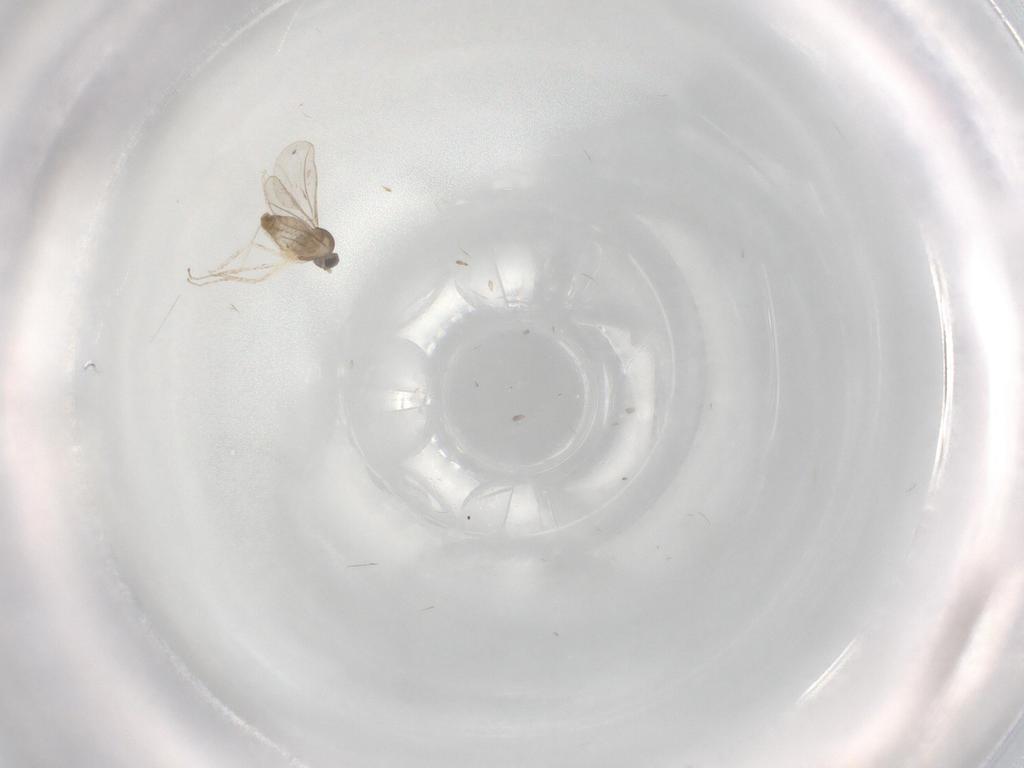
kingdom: Animalia
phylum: Arthropoda
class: Insecta
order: Diptera
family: Cecidomyiidae
